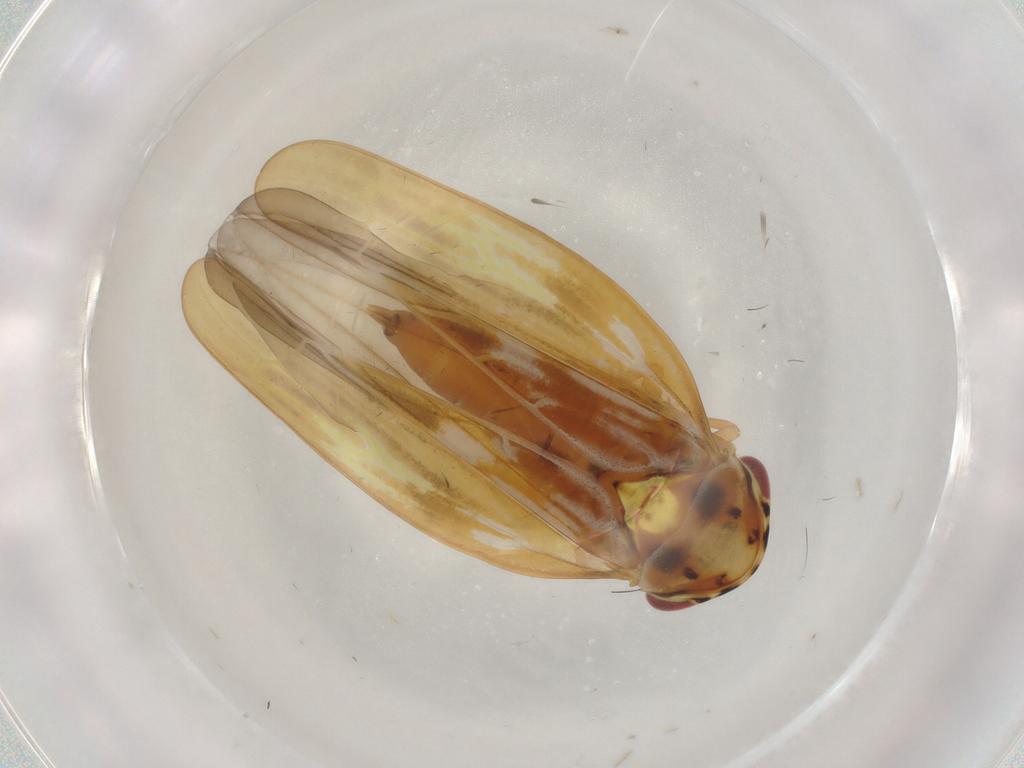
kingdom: Animalia
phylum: Arthropoda
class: Insecta
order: Hemiptera
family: Cicadellidae
